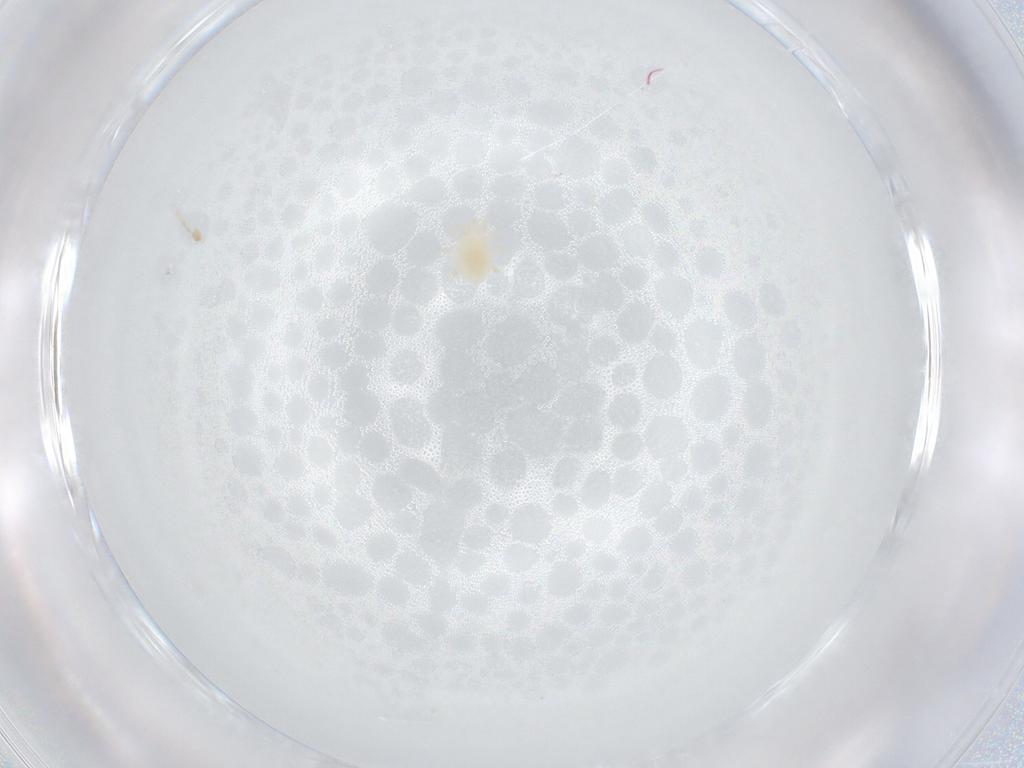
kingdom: Animalia
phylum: Arthropoda
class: Arachnida
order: Mesostigmata
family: Blattisociidae
